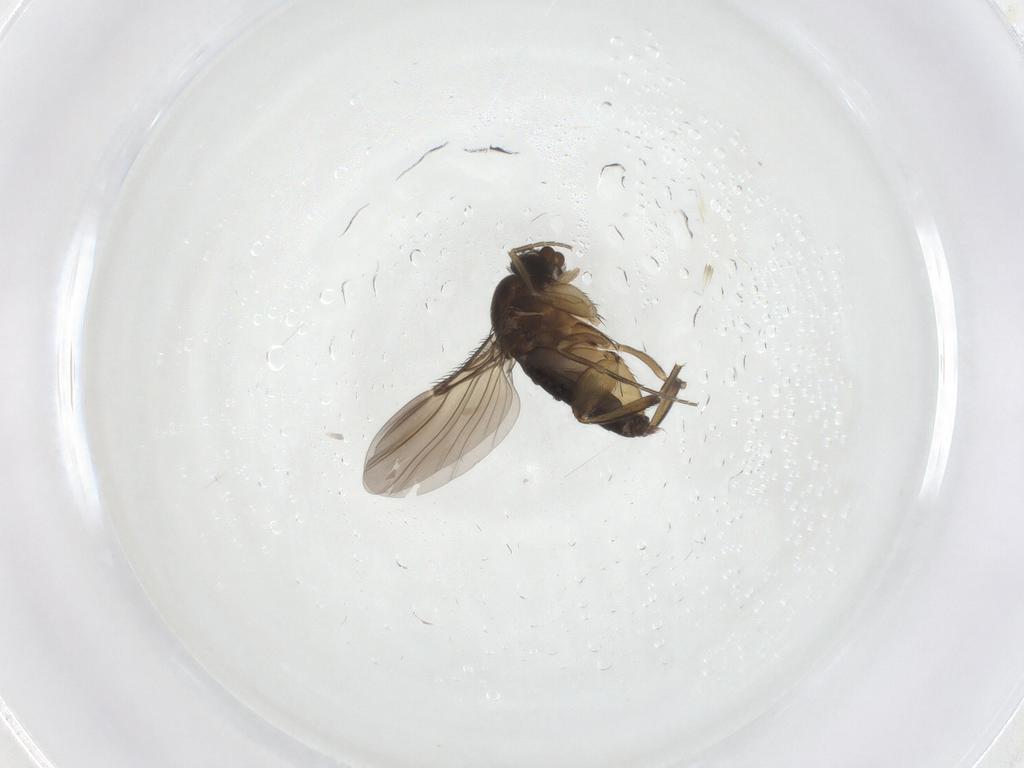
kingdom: Animalia
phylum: Arthropoda
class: Insecta
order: Diptera
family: Phoridae
